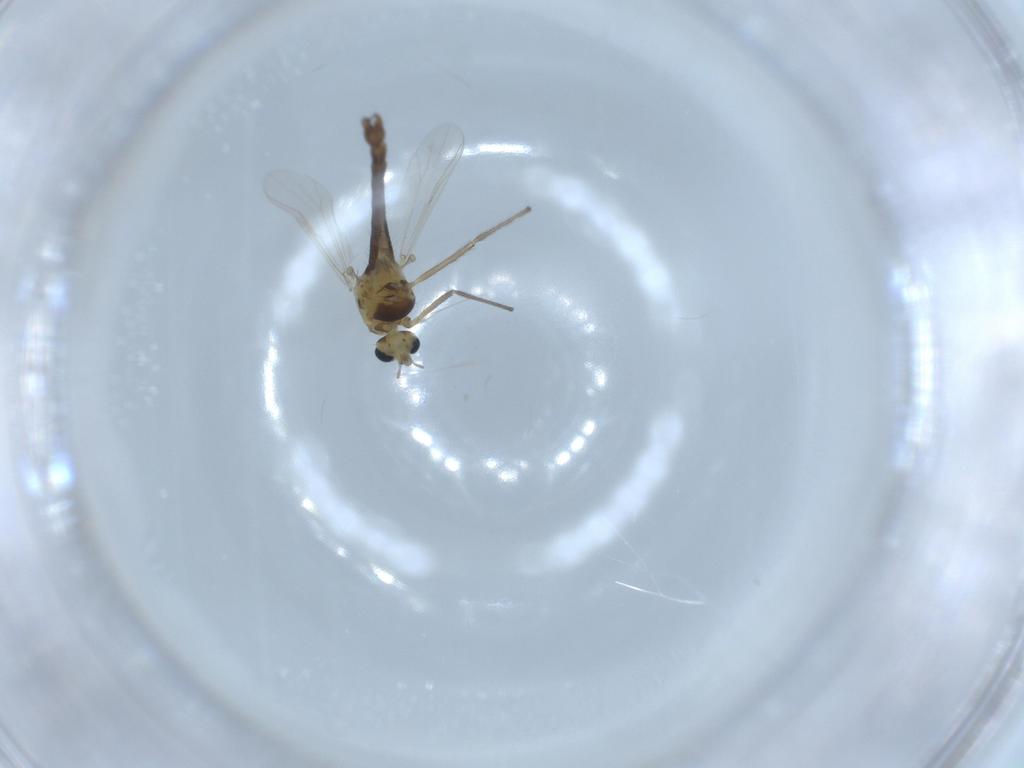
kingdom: Animalia
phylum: Arthropoda
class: Insecta
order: Diptera
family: Chironomidae
